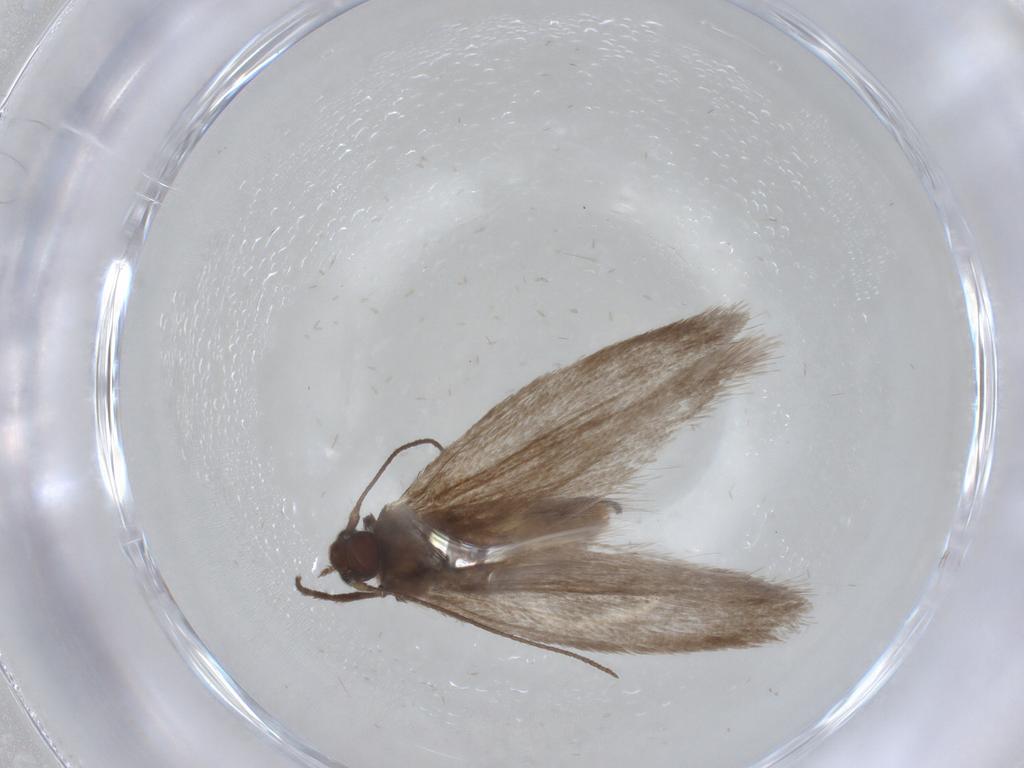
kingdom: Animalia
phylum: Arthropoda
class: Insecta
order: Lepidoptera
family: Limacodidae
